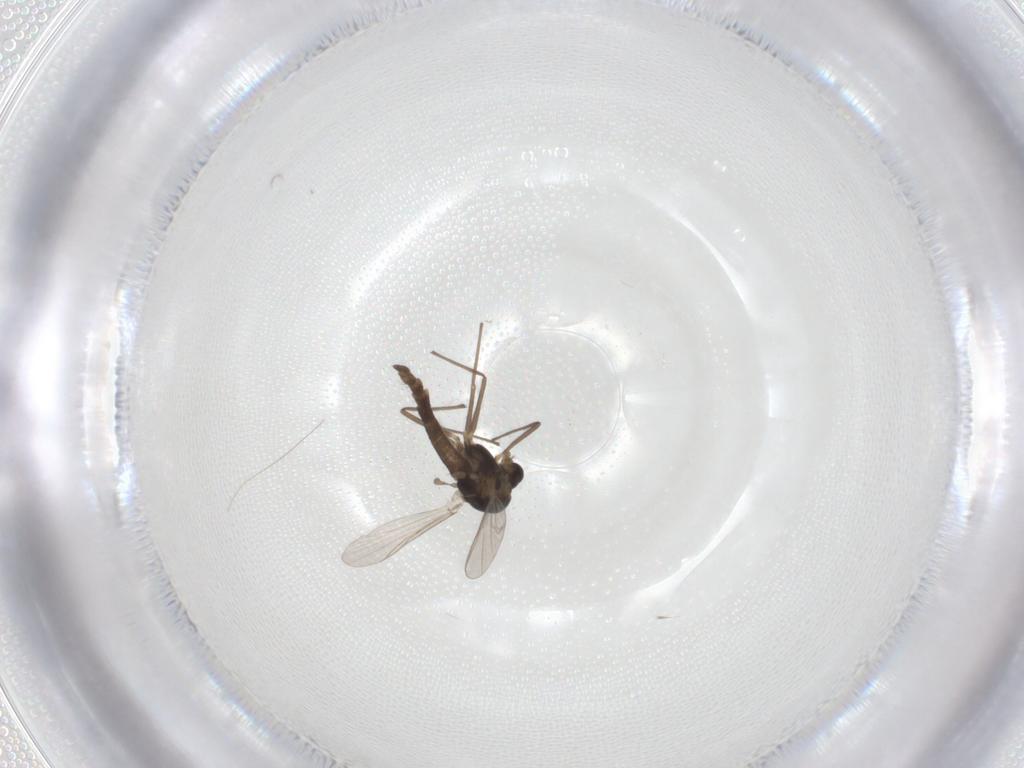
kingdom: Animalia
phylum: Arthropoda
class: Insecta
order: Diptera
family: Chironomidae
